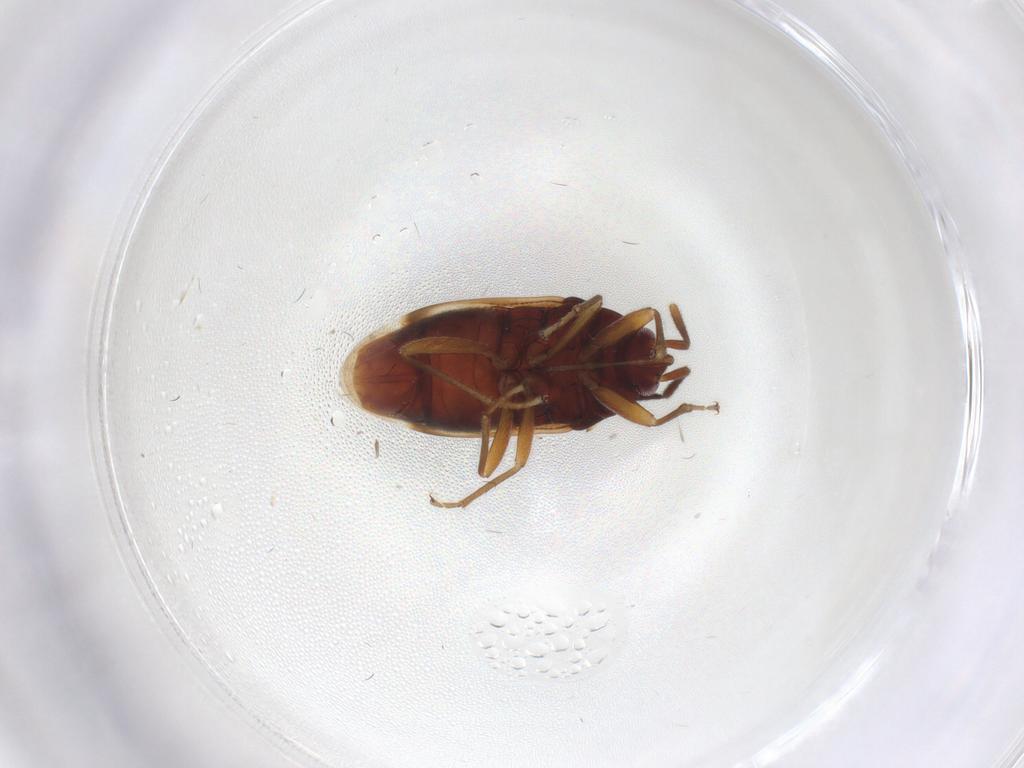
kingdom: Animalia
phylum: Arthropoda
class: Insecta
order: Hemiptera
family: Rhyparochromidae
